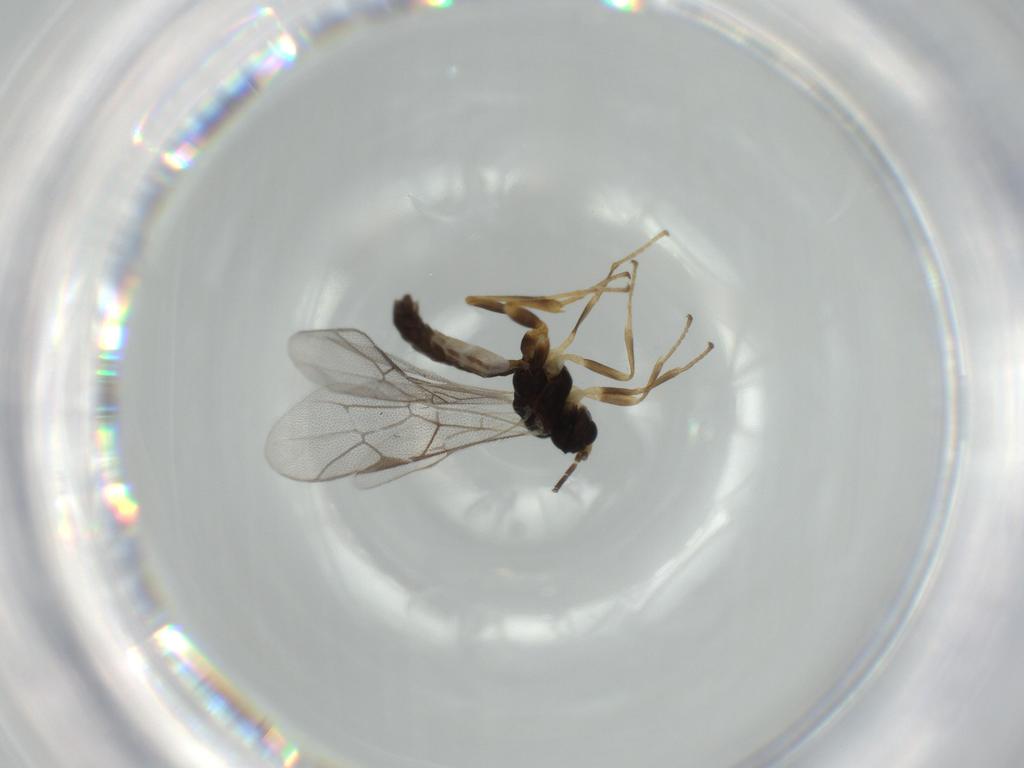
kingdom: Animalia
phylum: Arthropoda
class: Insecta
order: Hymenoptera
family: Ichneumonidae
